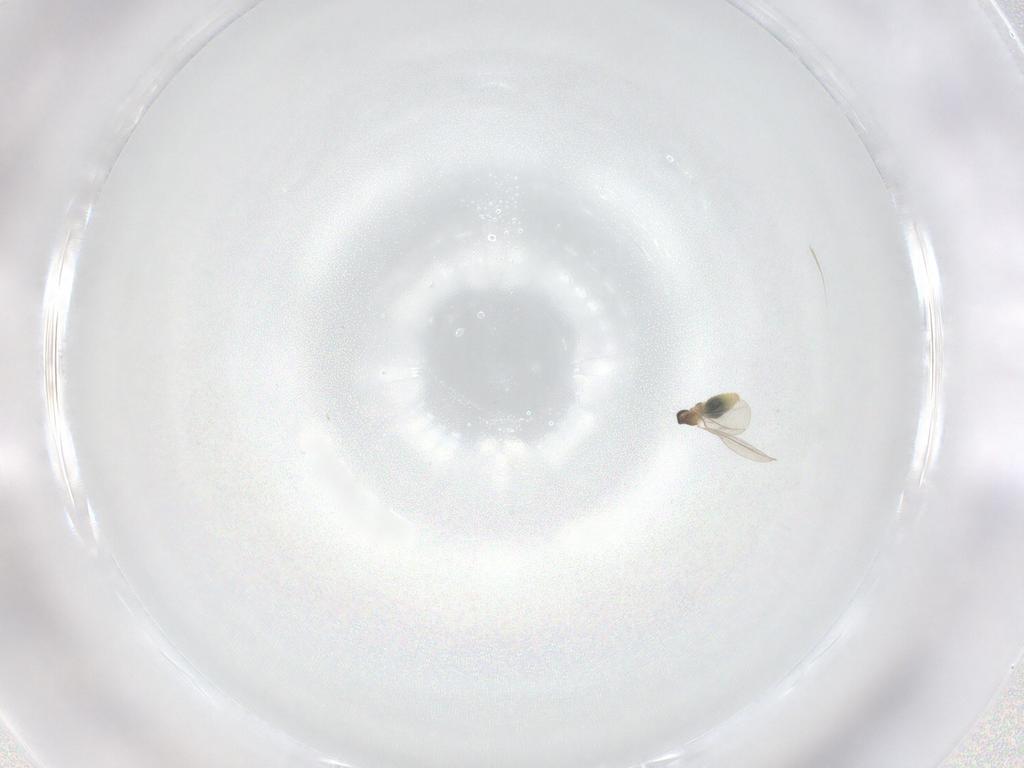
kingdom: Animalia
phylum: Arthropoda
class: Insecta
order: Diptera
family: Cecidomyiidae
